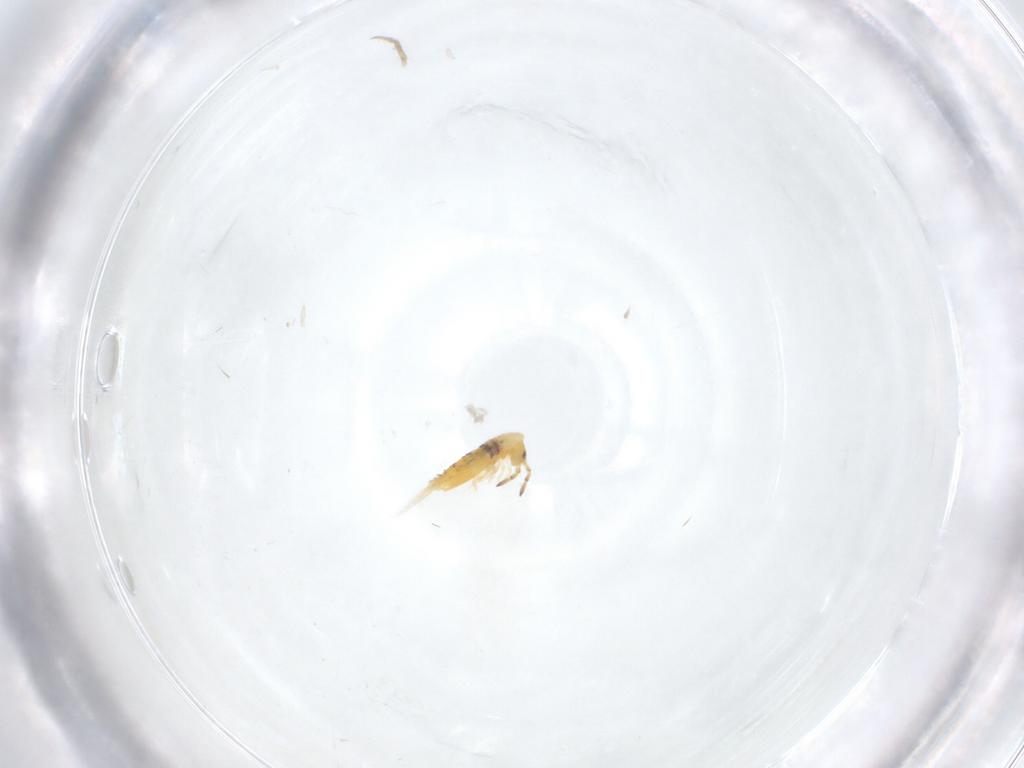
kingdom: Animalia
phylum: Arthropoda
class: Collembola
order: Entomobryomorpha
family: Entomobryidae
